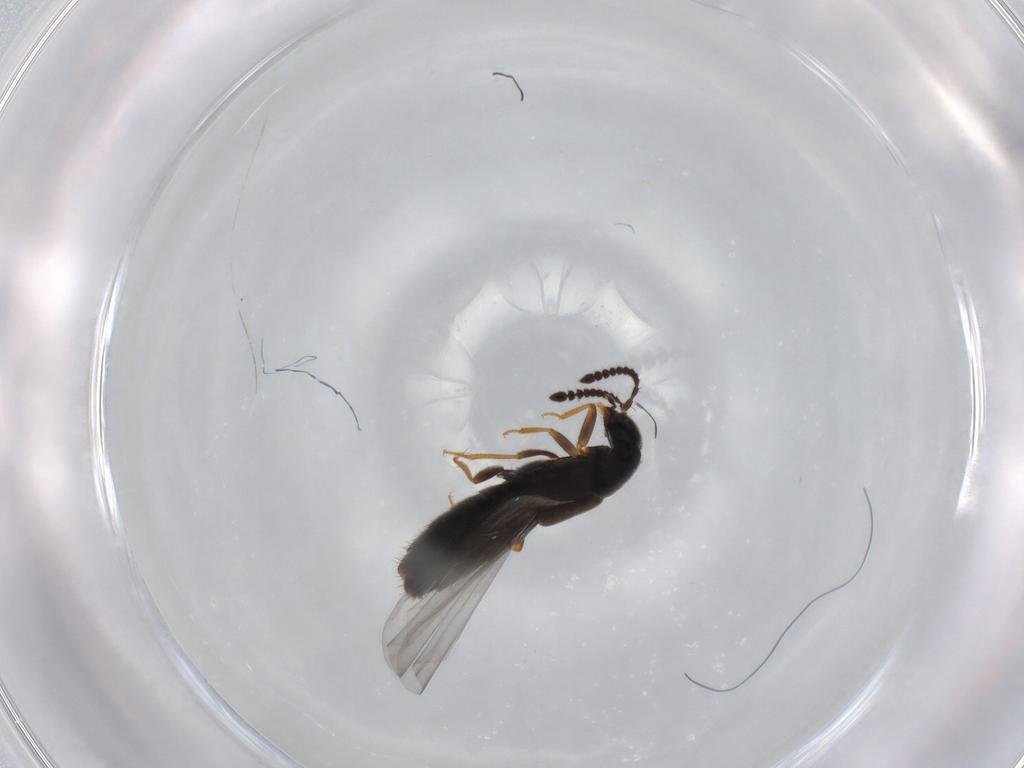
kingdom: Animalia
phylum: Arthropoda
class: Insecta
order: Coleoptera
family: Staphylinidae
